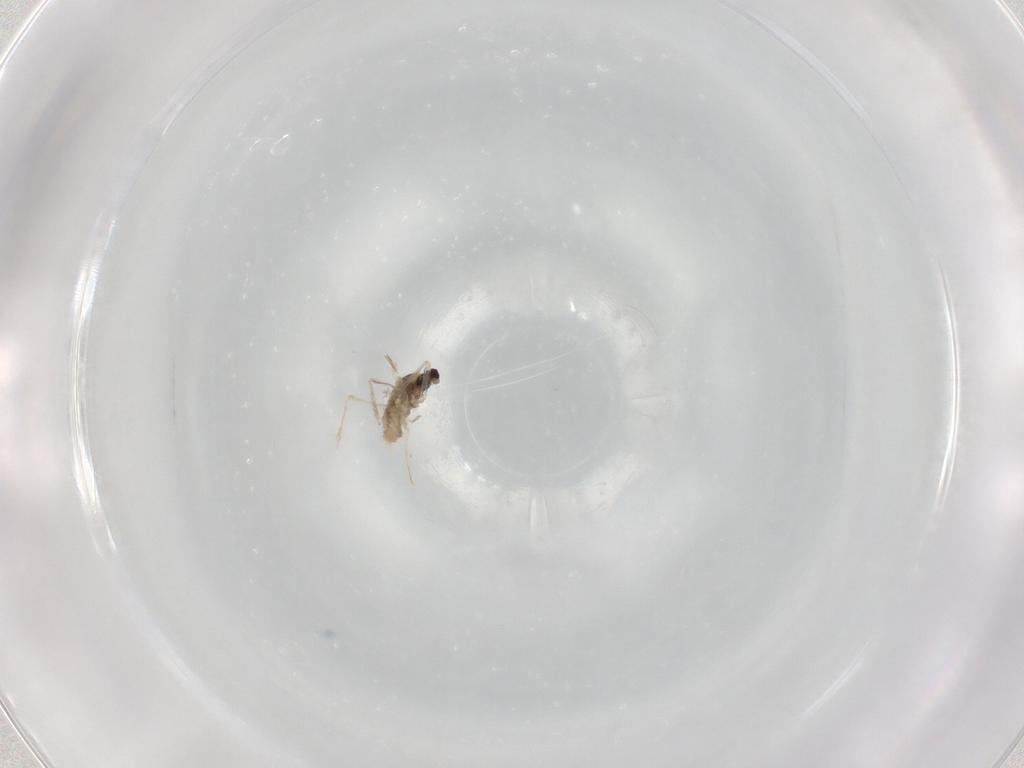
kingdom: Animalia
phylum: Arthropoda
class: Insecta
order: Diptera
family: Cecidomyiidae
